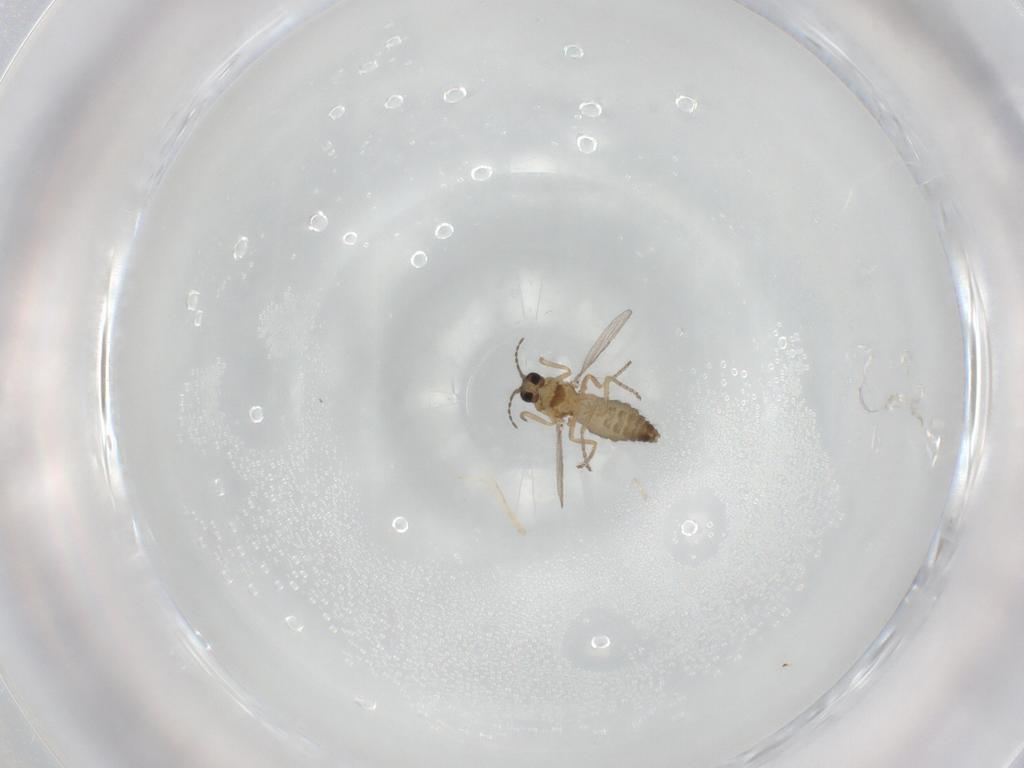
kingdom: Animalia
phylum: Arthropoda
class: Insecta
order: Diptera
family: Ceratopogonidae
